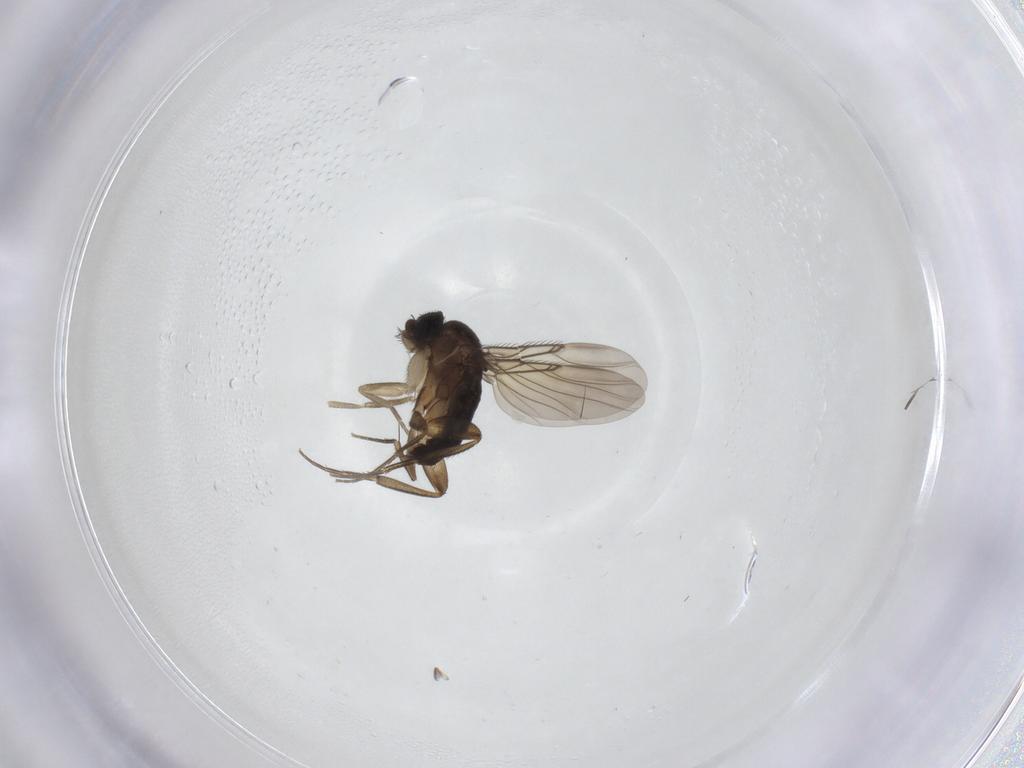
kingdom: Animalia
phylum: Arthropoda
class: Insecta
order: Diptera
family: Phoridae
